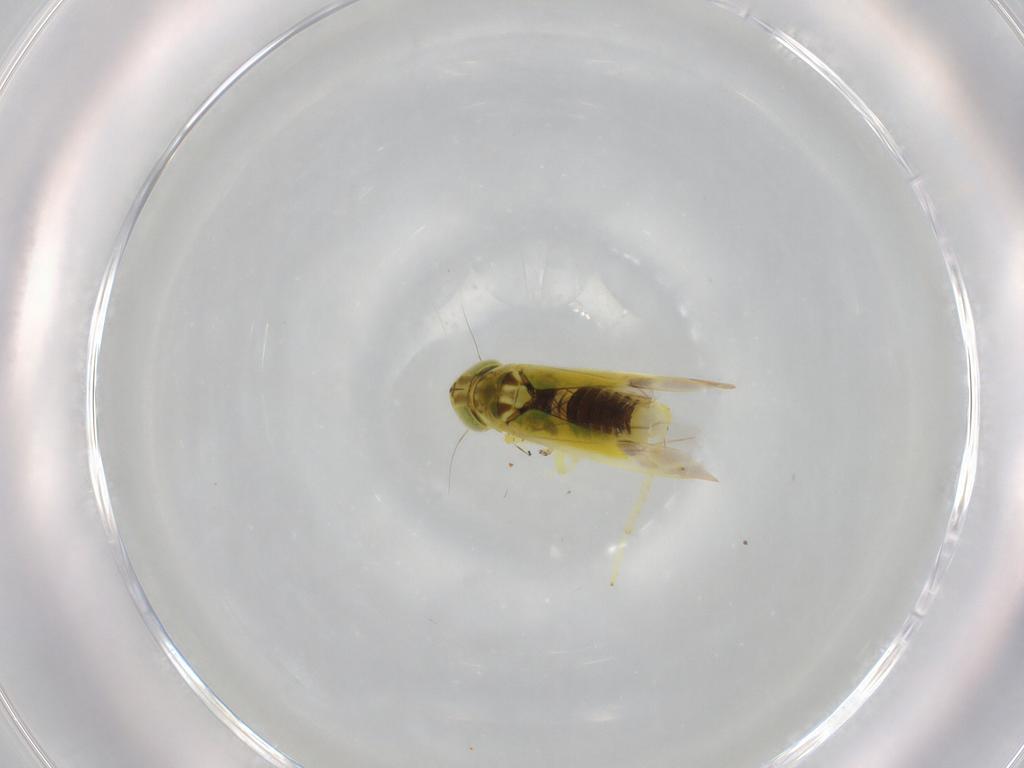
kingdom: Animalia
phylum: Arthropoda
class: Insecta
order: Hemiptera
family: Cicadellidae
